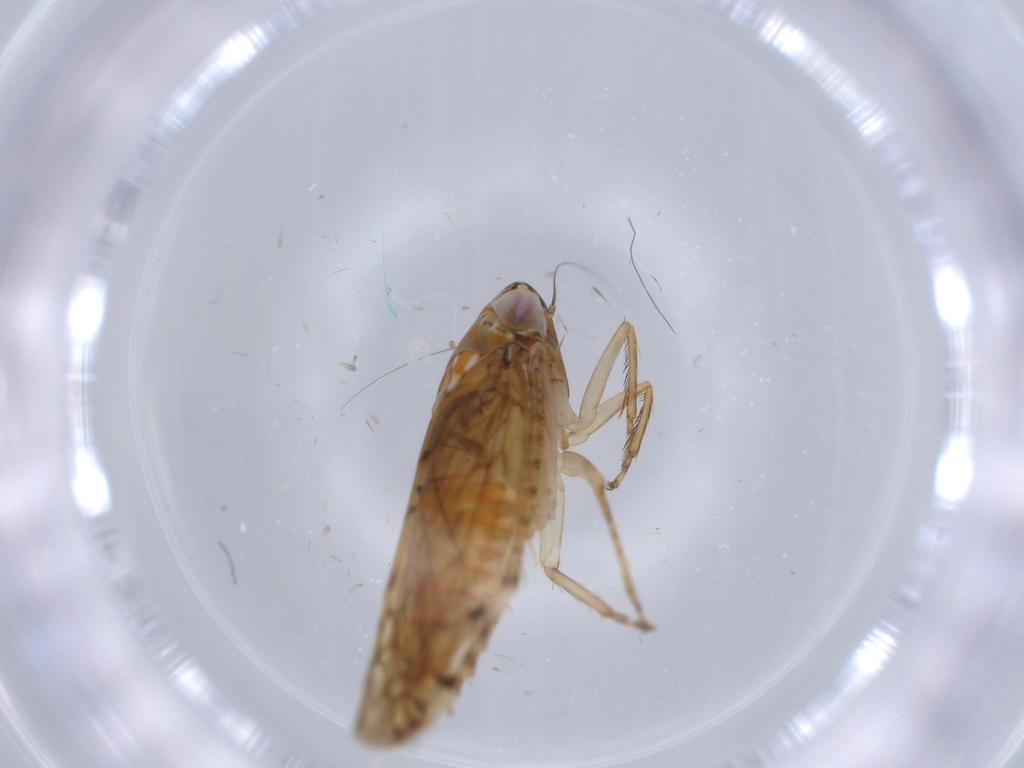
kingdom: Animalia
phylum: Arthropoda
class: Insecta
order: Hemiptera
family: Cicadellidae
